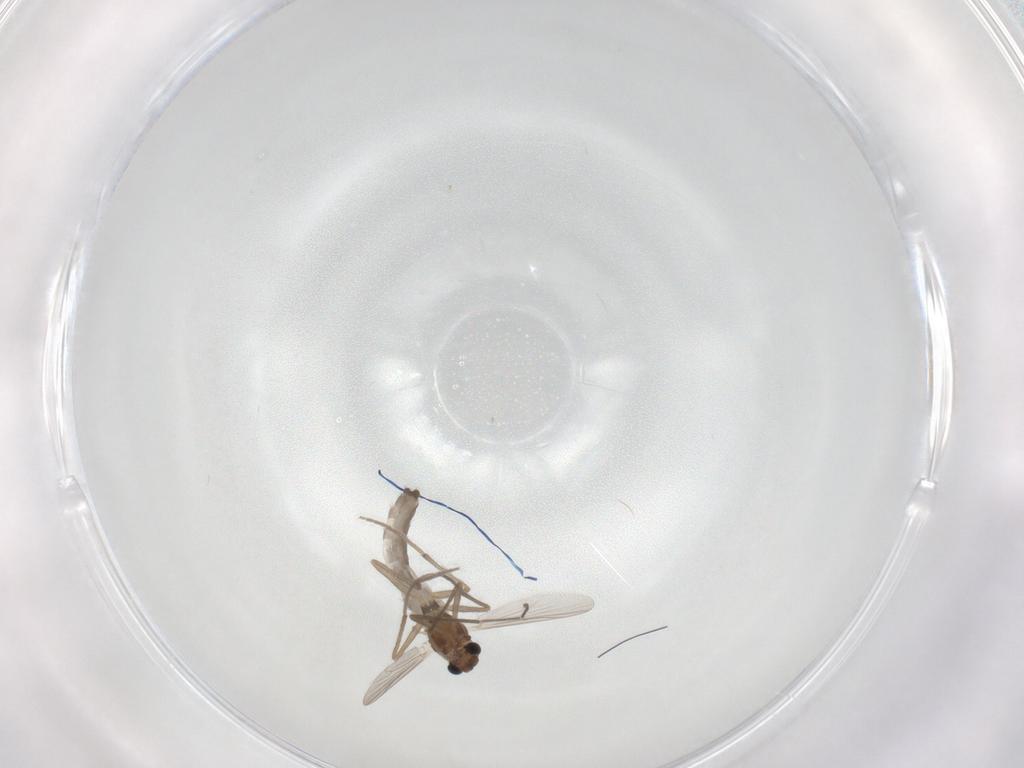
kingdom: Animalia
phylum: Arthropoda
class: Insecta
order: Diptera
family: Chironomidae
